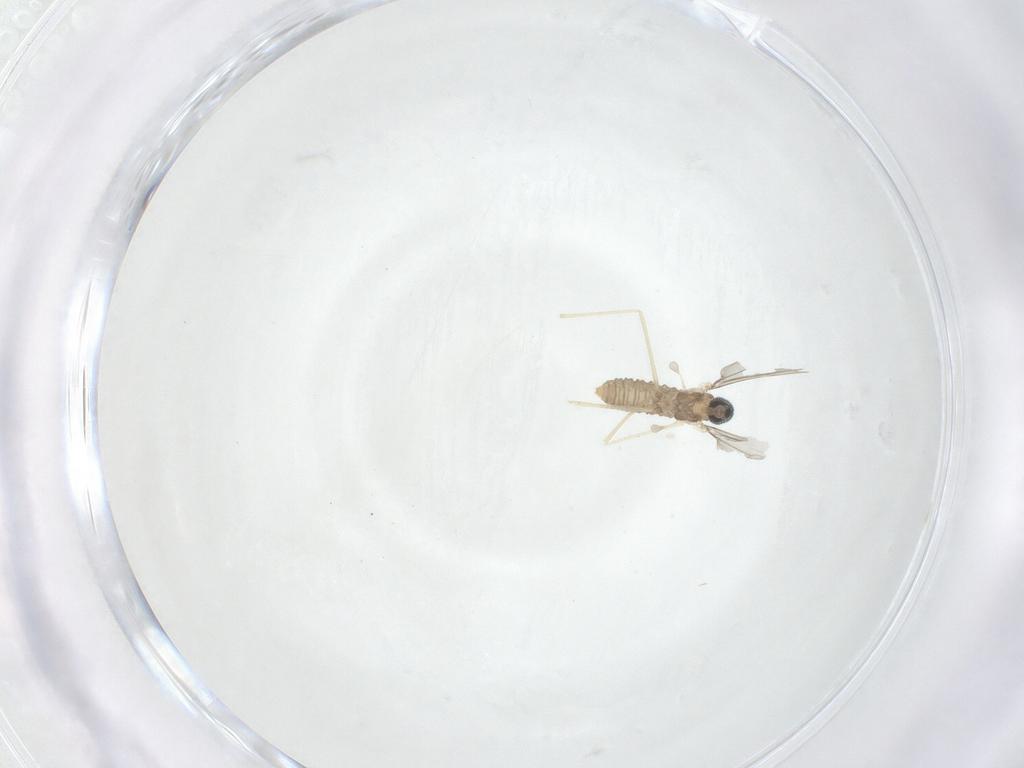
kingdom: Animalia
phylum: Arthropoda
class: Insecta
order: Diptera
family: Cecidomyiidae
